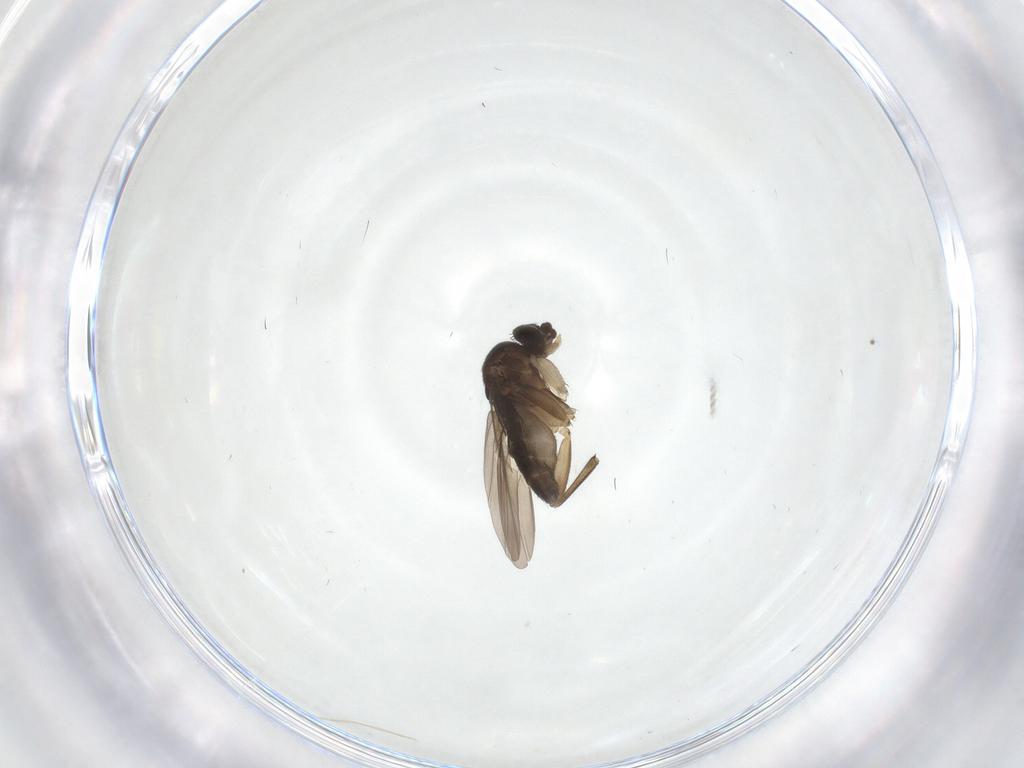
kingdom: Animalia
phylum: Arthropoda
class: Insecta
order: Diptera
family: Phoridae
